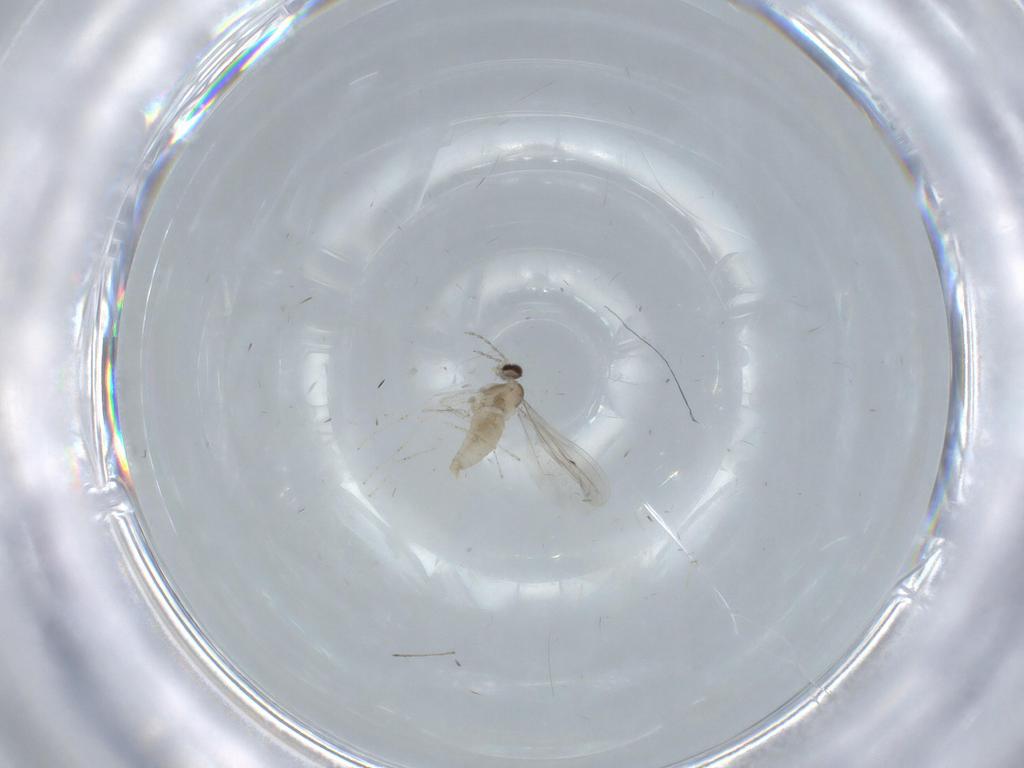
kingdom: Animalia
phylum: Arthropoda
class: Insecta
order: Diptera
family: Cecidomyiidae
